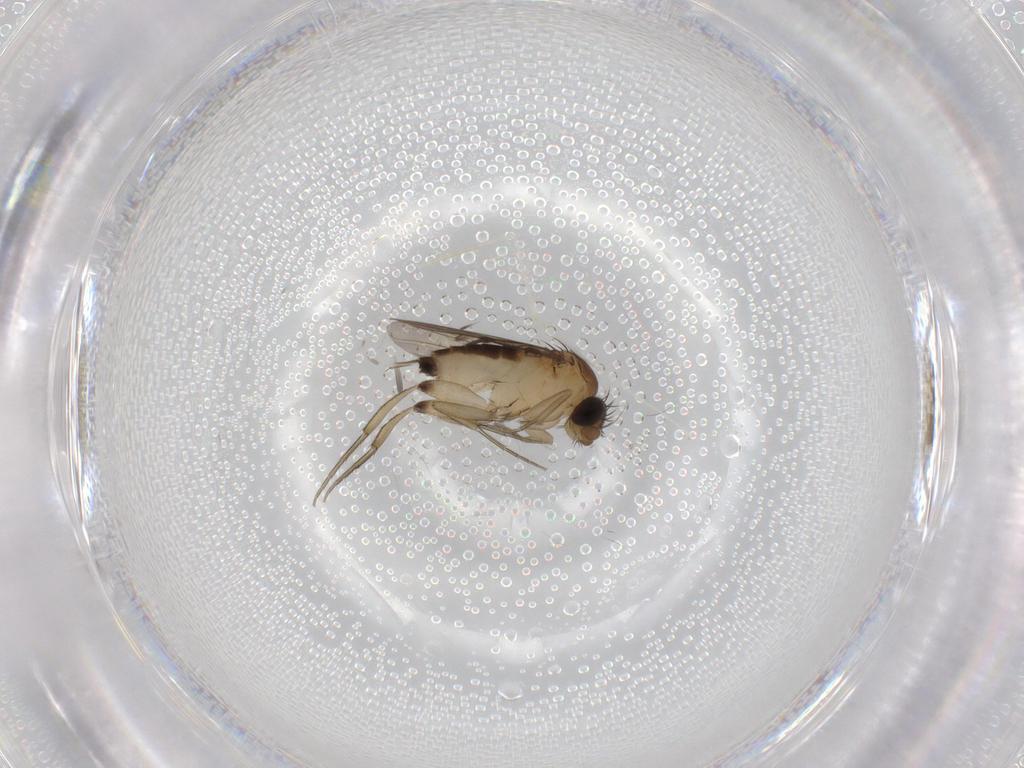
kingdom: Animalia
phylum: Arthropoda
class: Insecta
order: Diptera
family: Phoridae
